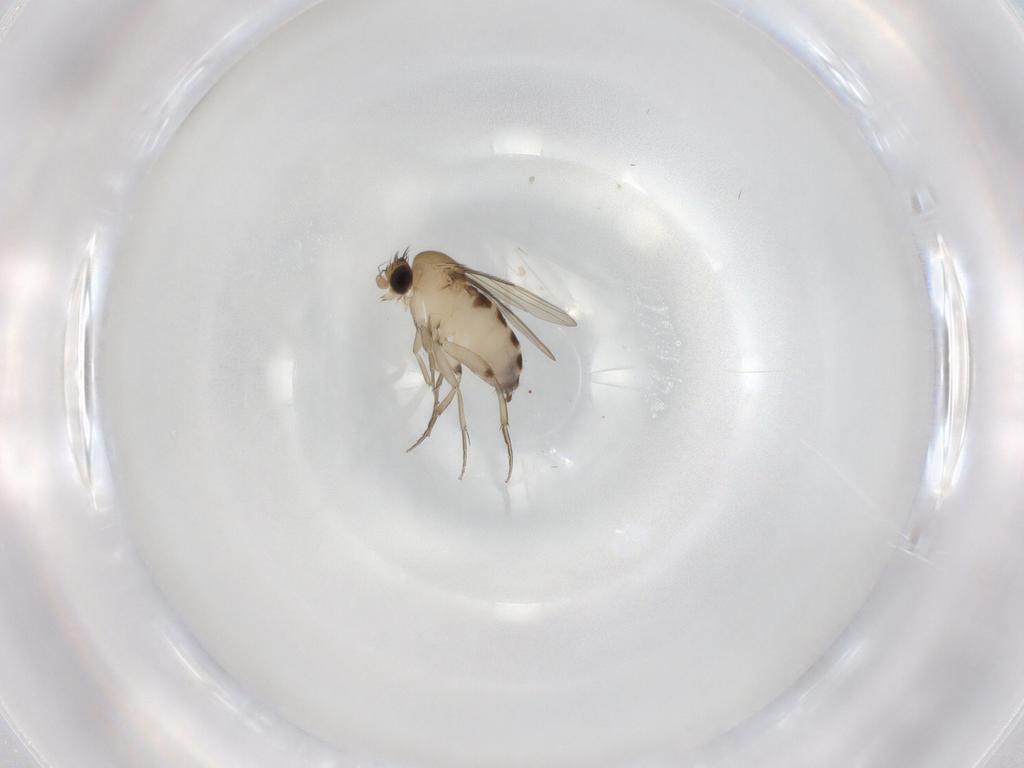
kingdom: Animalia
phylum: Arthropoda
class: Insecta
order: Diptera
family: Phoridae
